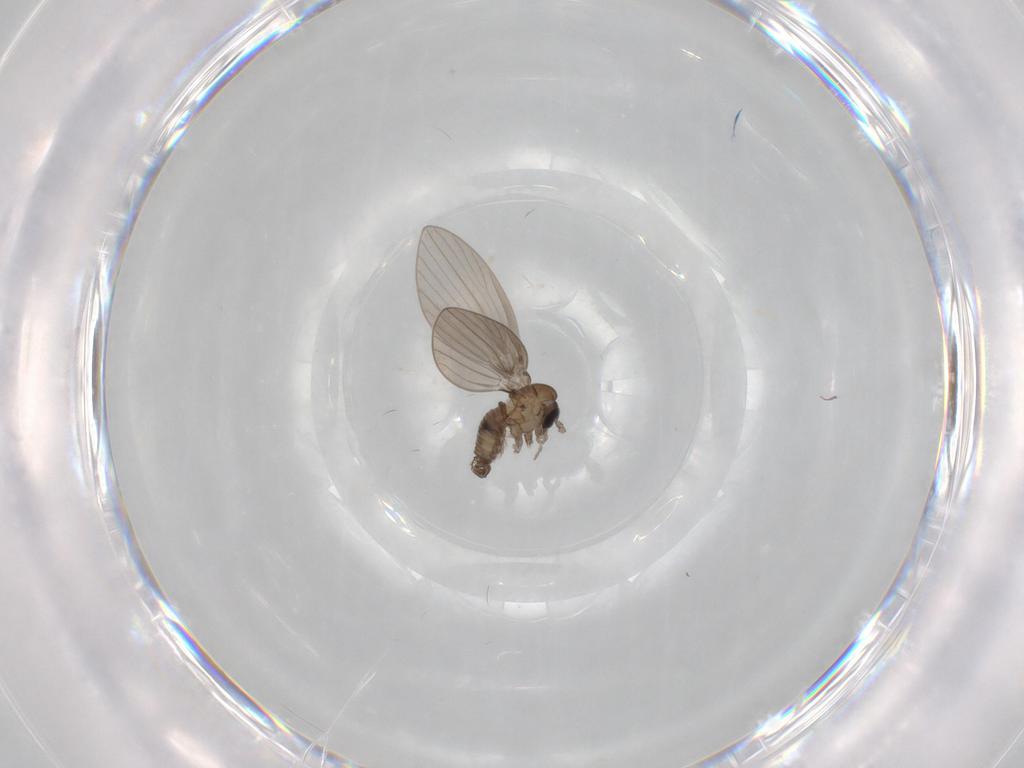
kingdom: Animalia
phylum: Arthropoda
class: Insecta
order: Diptera
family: Psychodidae
